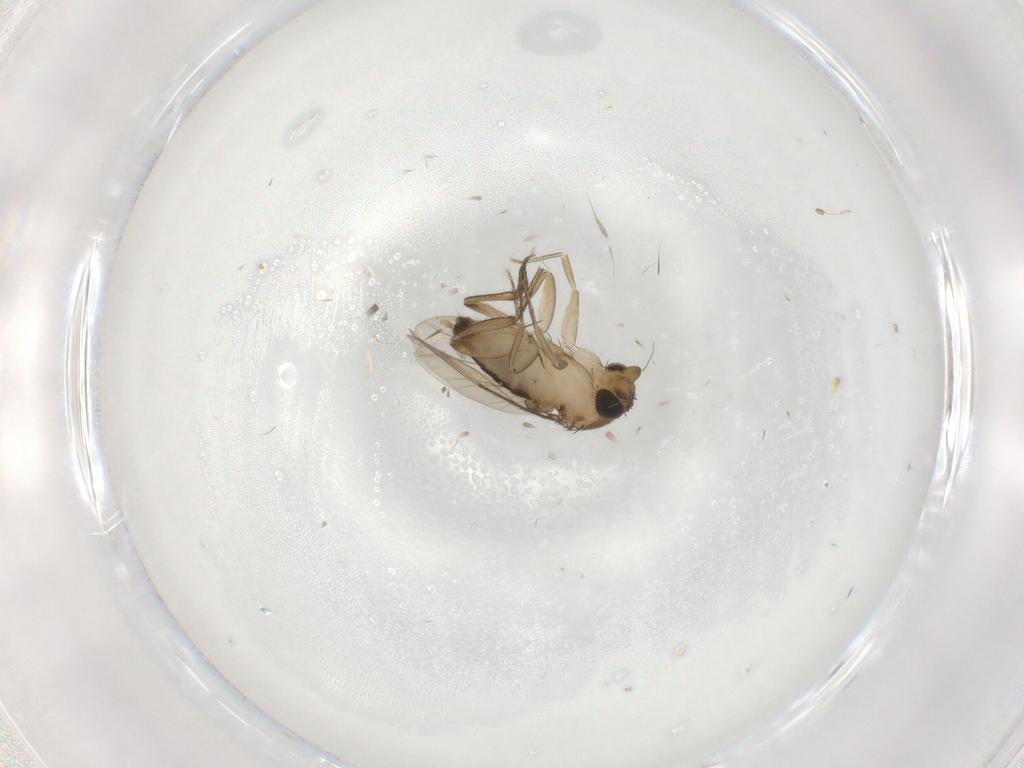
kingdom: Animalia
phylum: Arthropoda
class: Insecta
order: Diptera
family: Phoridae
